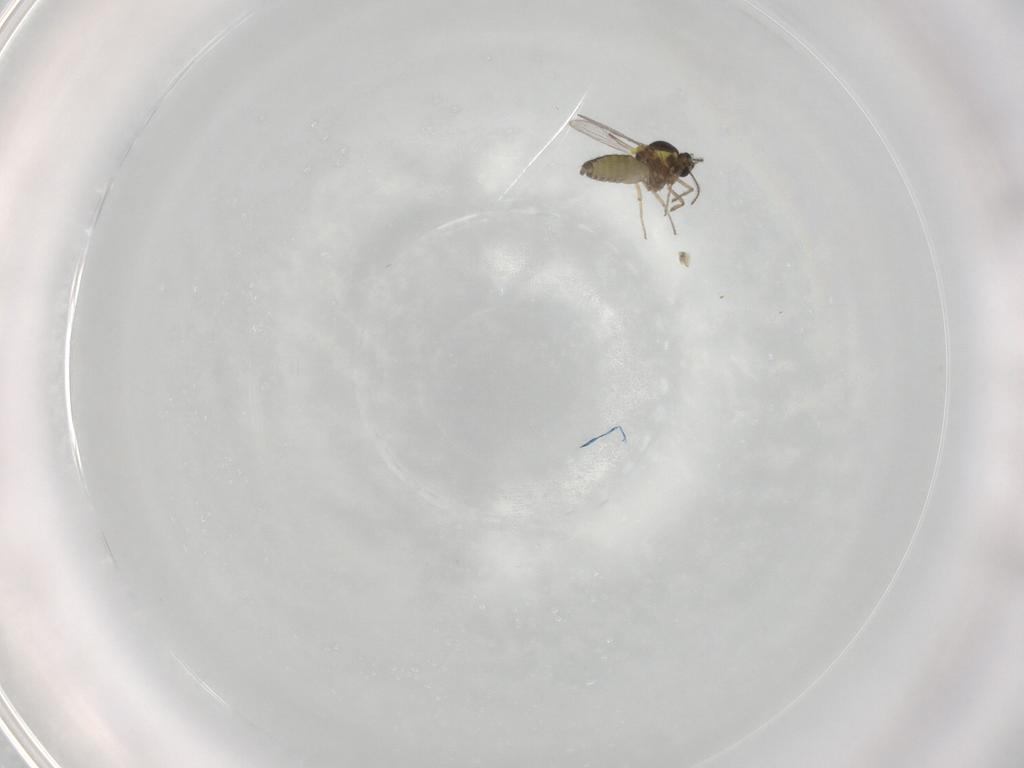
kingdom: Animalia
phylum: Arthropoda
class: Insecta
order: Diptera
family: Ceratopogonidae
